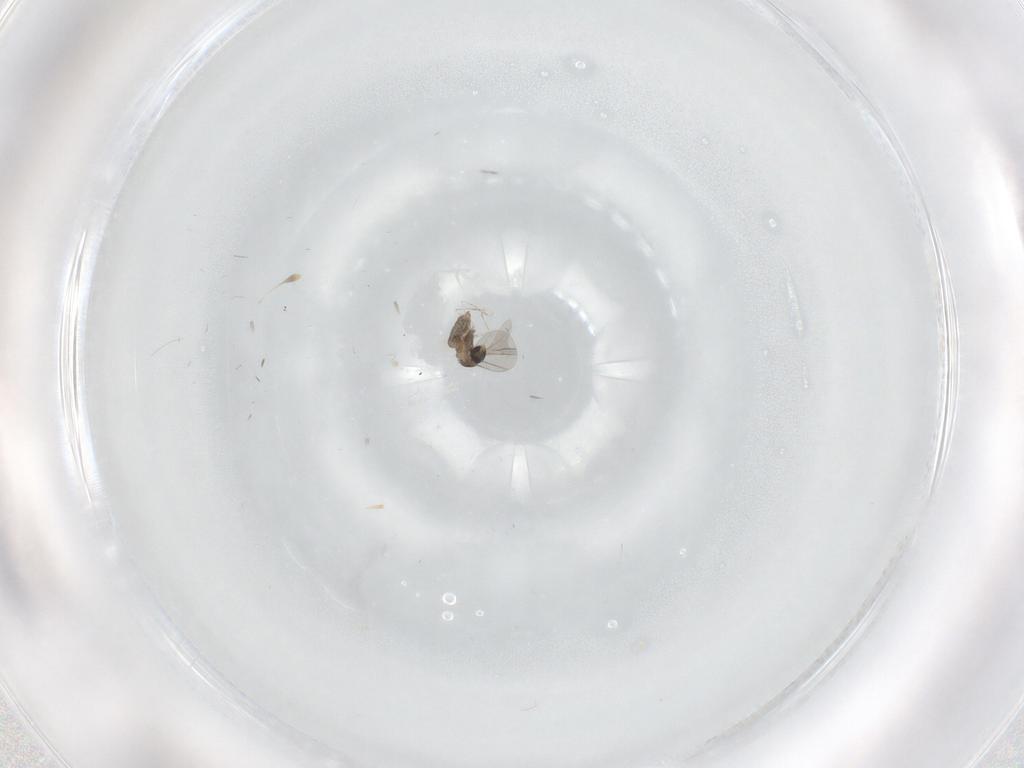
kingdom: Animalia
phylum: Arthropoda
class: Insecta
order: Diptera
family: Cecidomyiidae
